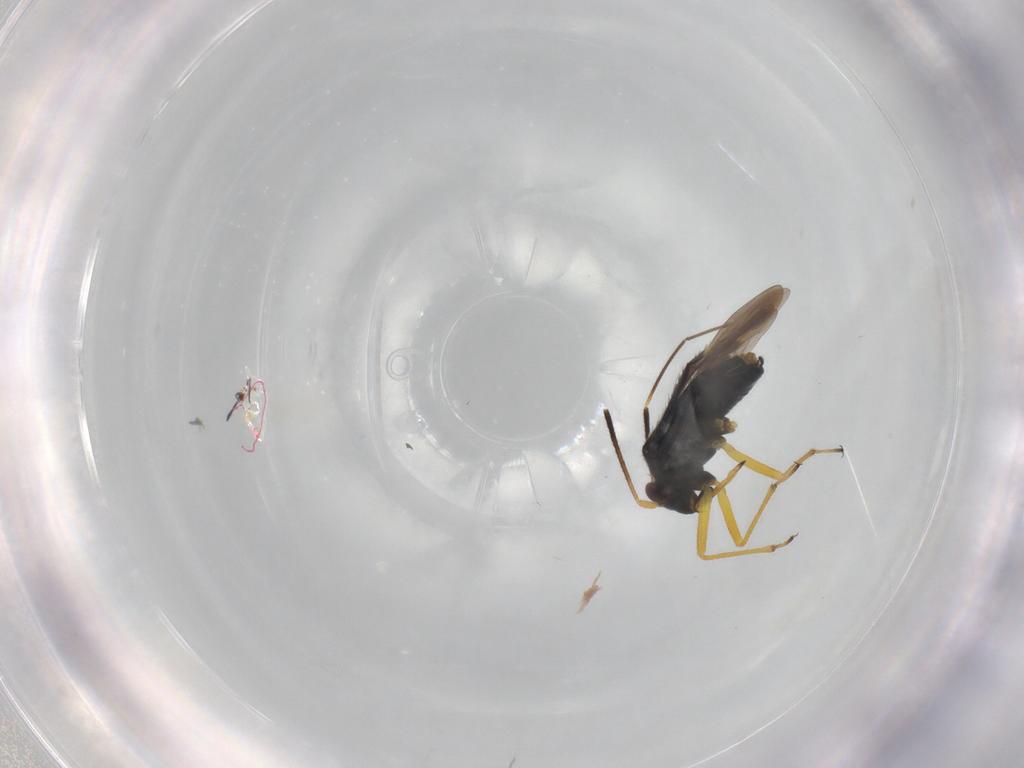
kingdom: Animalia
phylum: Arthropoda
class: Insecta
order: Hemiptera
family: Miridae
